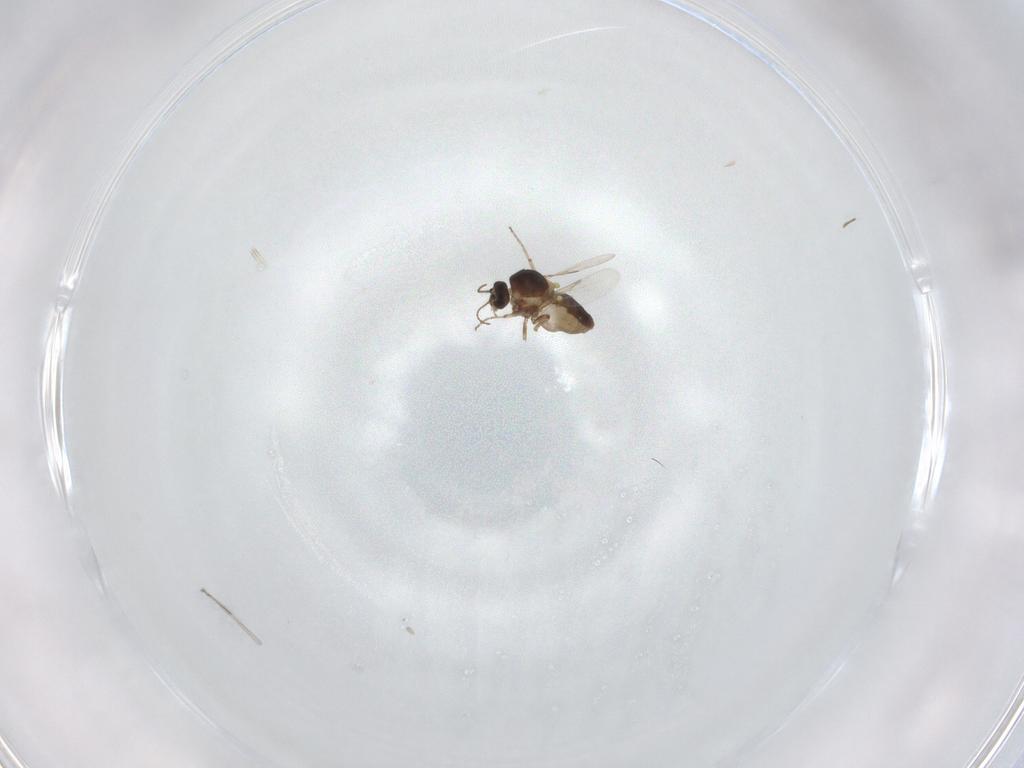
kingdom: Animalia
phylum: Arthropoda
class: Insecta
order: Diptera
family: Ceratopogonidae
